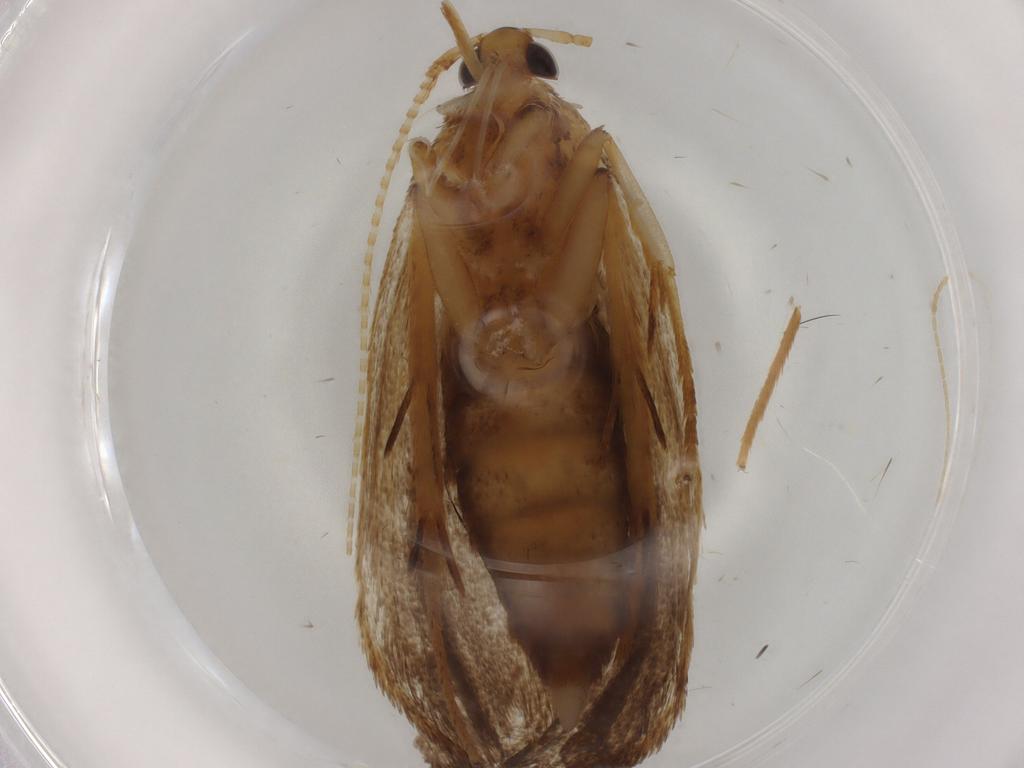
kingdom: Animalia
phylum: Arthropoda
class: Insecta
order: Lepidoptera
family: Lecithoceridae
